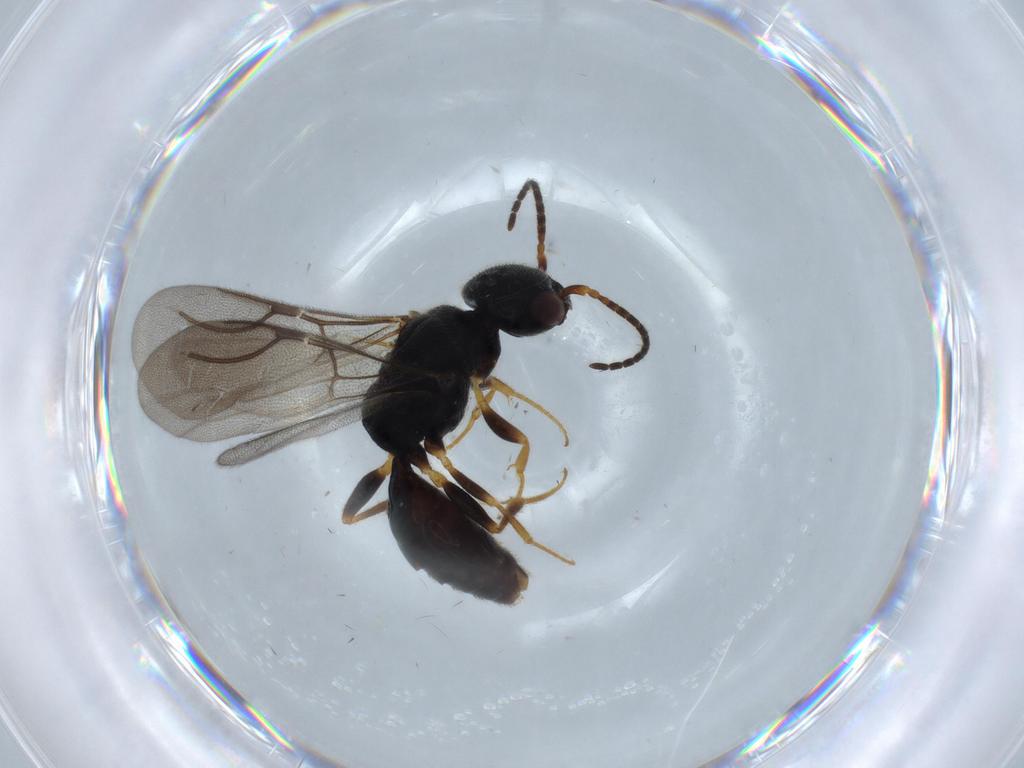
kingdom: Animalia
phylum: Arthropoda
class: Insecta
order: Hymenoptera
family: Bethylidae
